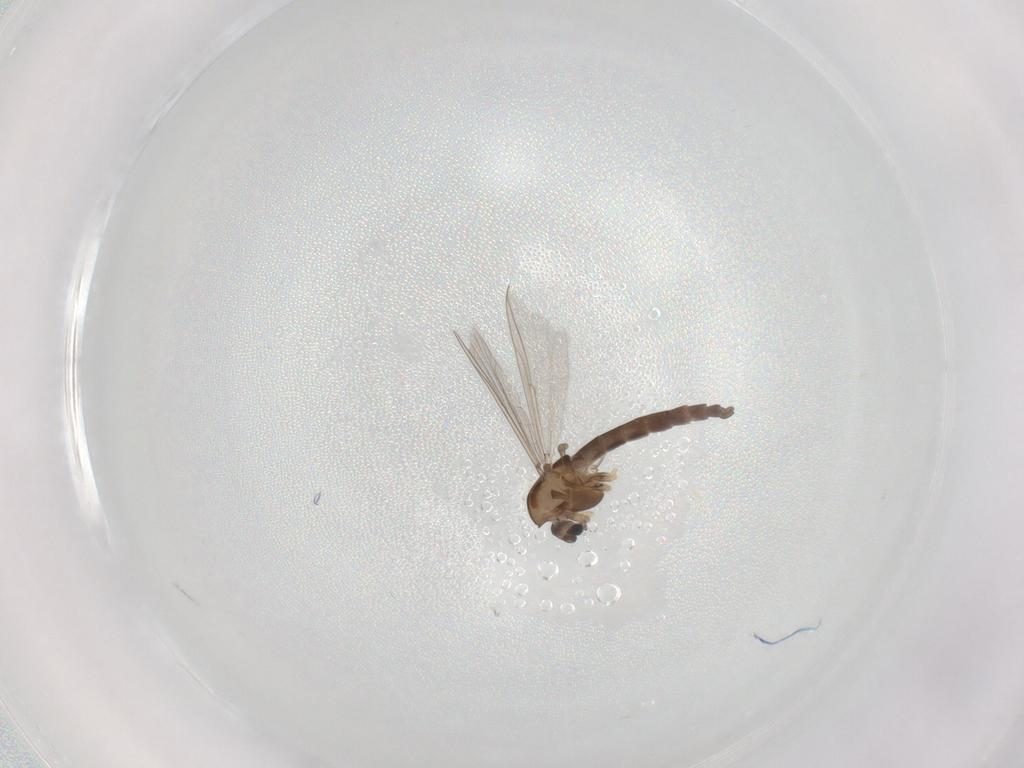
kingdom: Animalia
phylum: Arthropoda
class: Insecta
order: Diptera
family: Chironomidae
